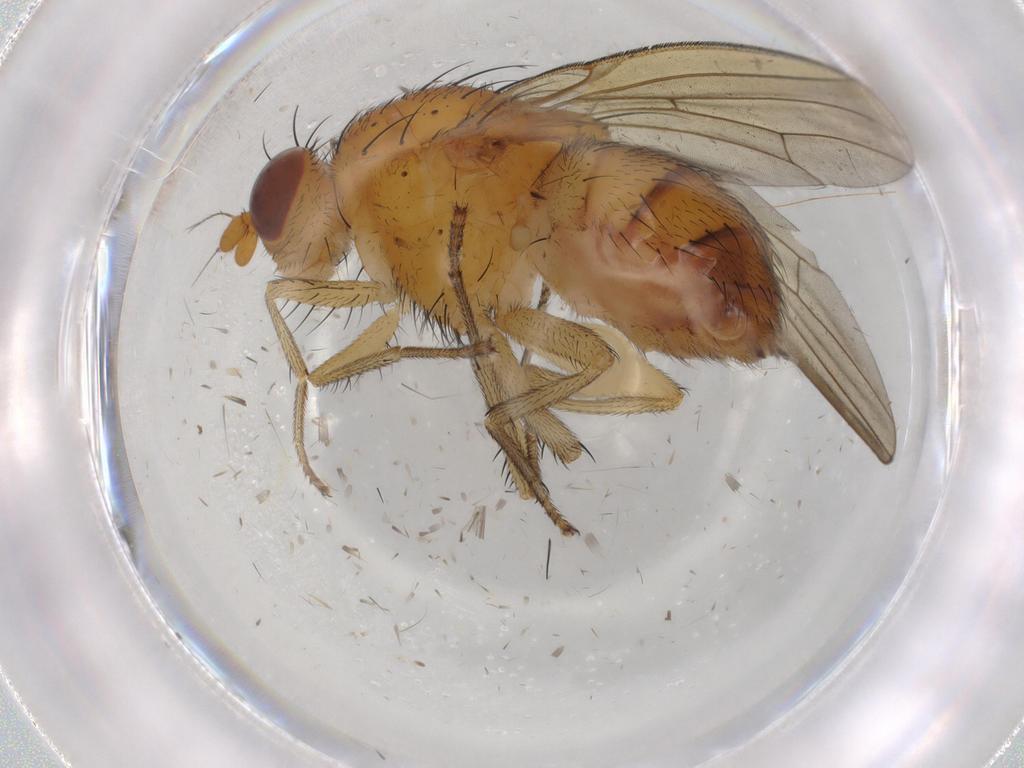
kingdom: Animalia
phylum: Arthropoda
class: Insecta
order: Diptera
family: Syrphidae
